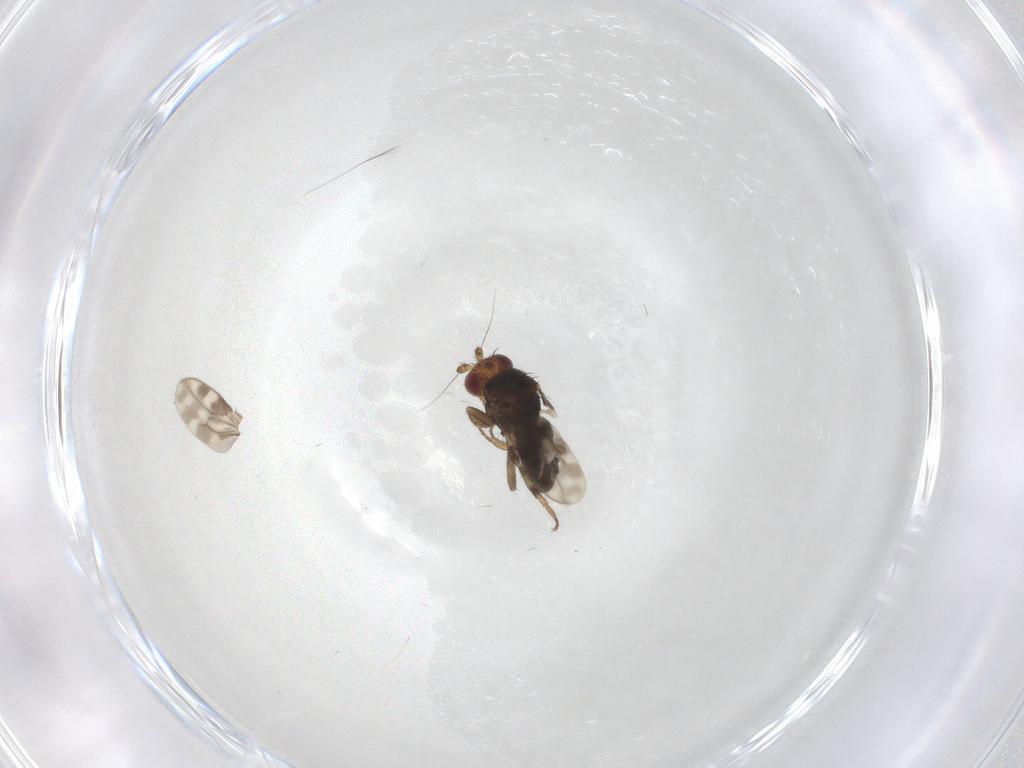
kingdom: Animalia
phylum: Arthropoda
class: Insecta
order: Diptera
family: Sphaeroceridae
